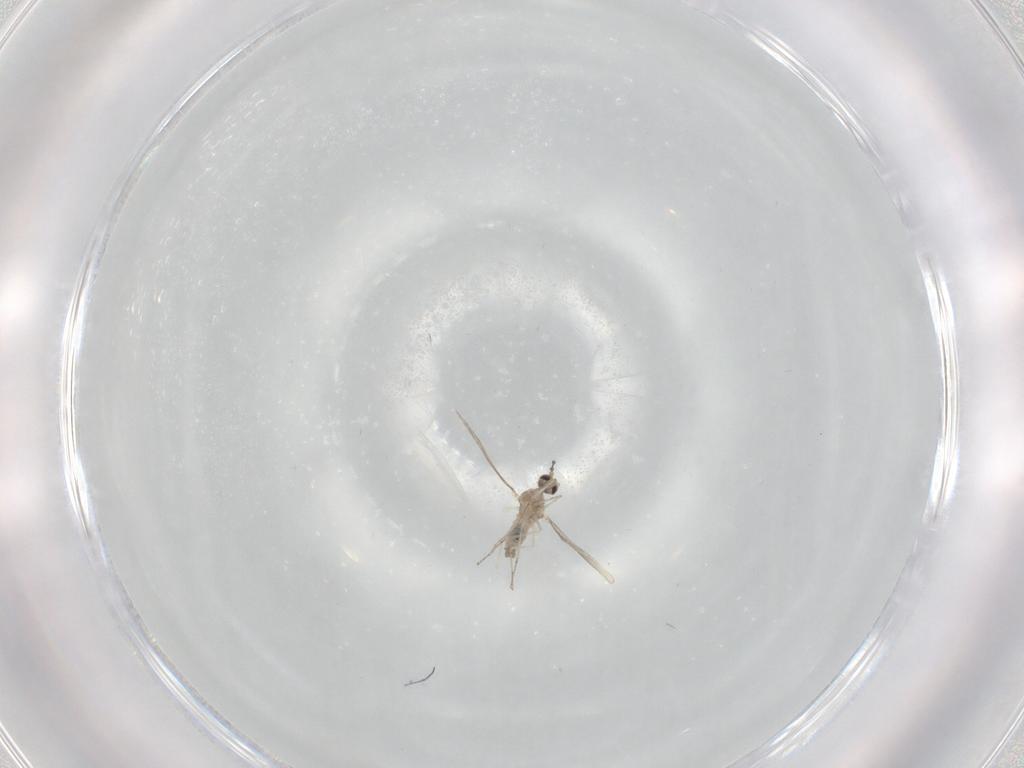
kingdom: Animalia
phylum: Arthropoda
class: Insecta
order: Diptera
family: Cecidomyiidae
